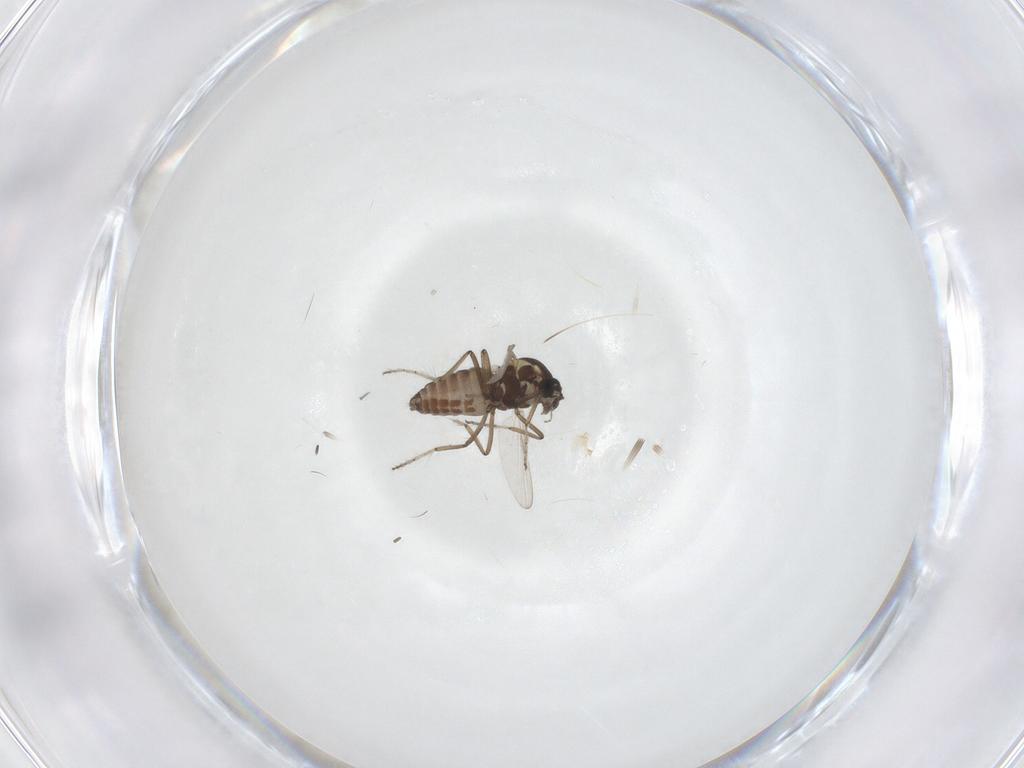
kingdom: Animalia
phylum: Arthropoda
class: Insecta
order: Diptera
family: Ceratopogonidae
